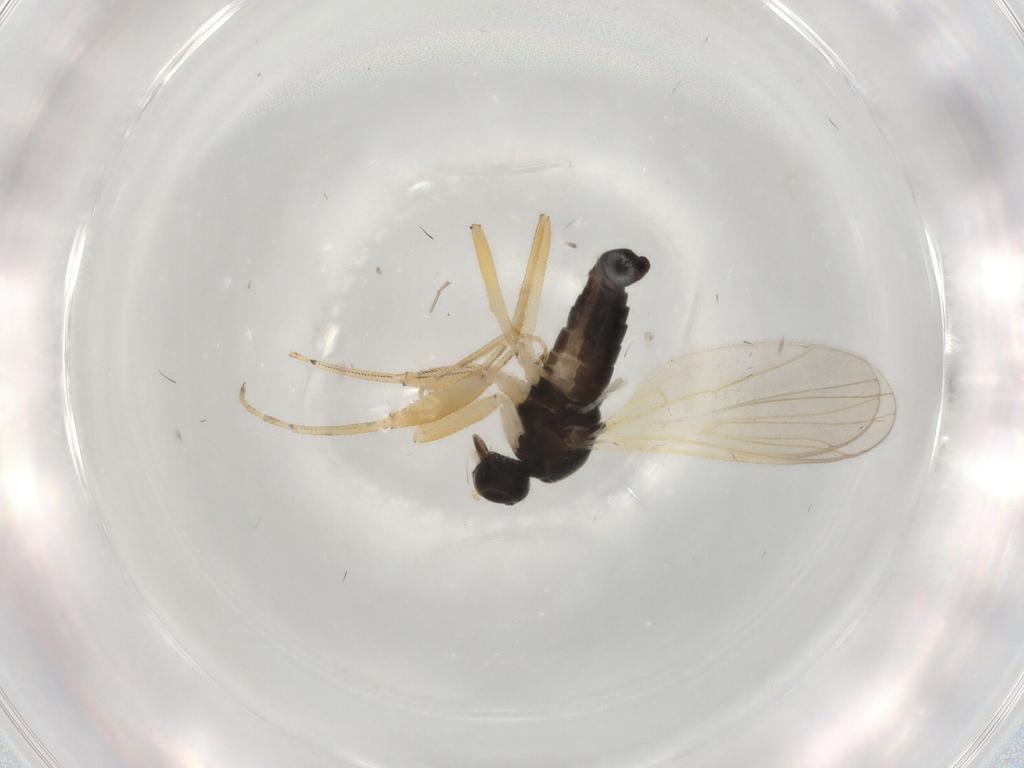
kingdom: Animalia
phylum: Arthropoda
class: Insecta
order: Diptera
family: Hybotidae
